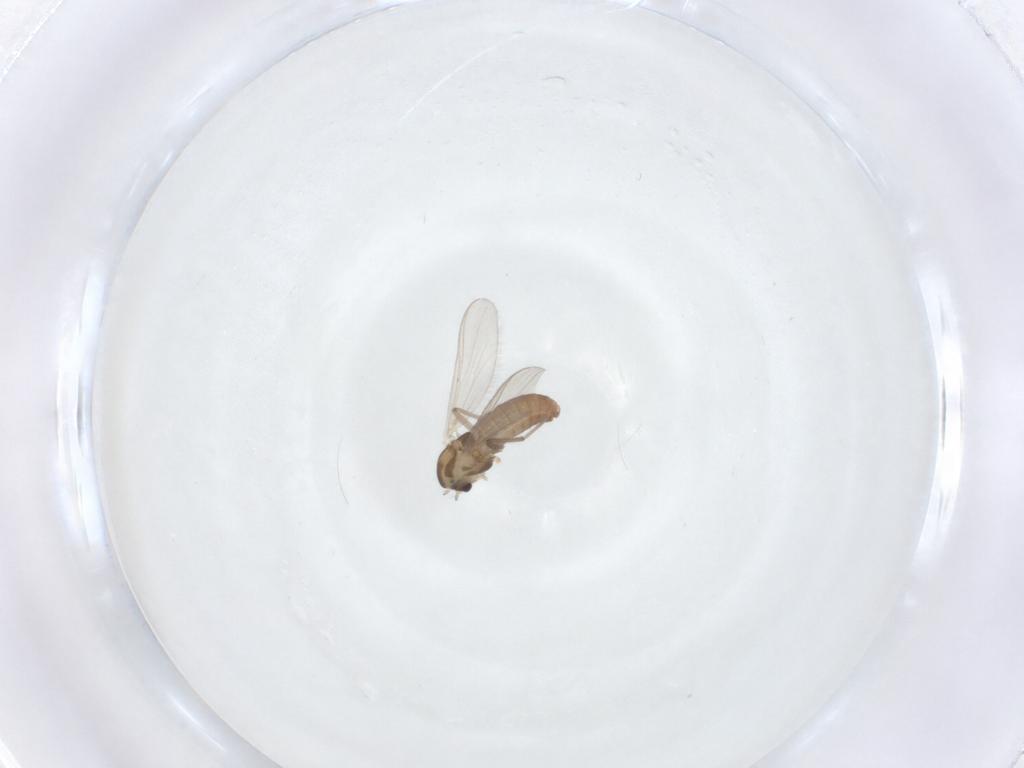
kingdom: Animalia
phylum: Arthropoda
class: Insecta
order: Diptera
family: Chironomidae
